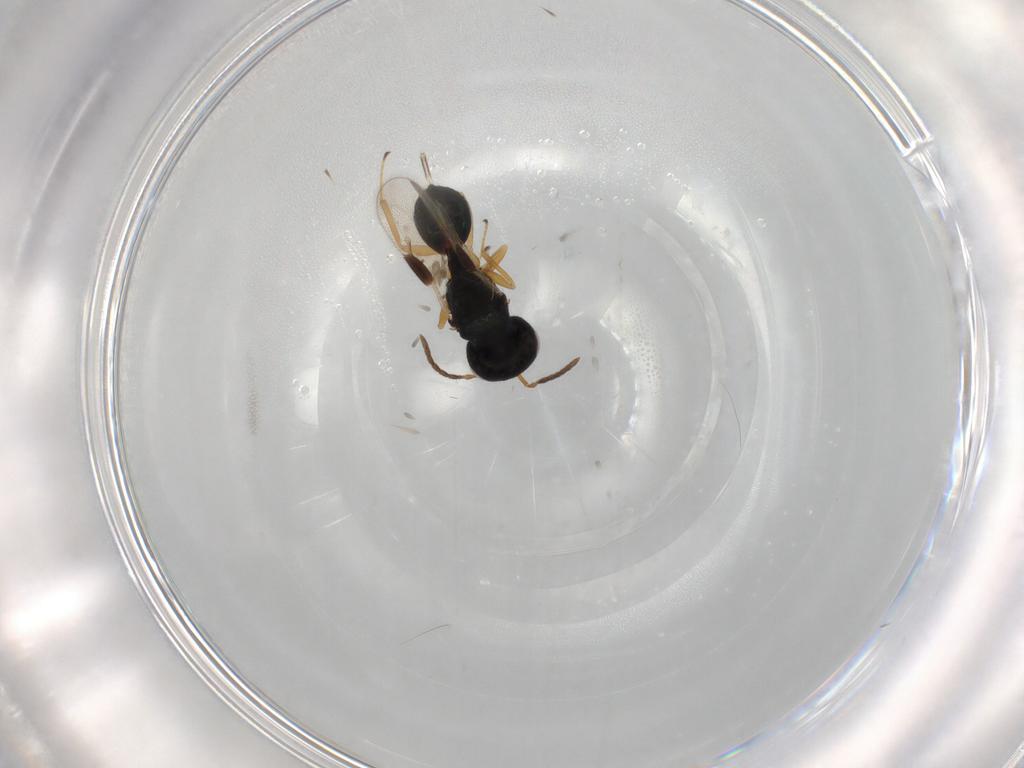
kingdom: Animalia
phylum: Arthropoda
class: Insecta
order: Hymenoptera
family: Pteromalidae
